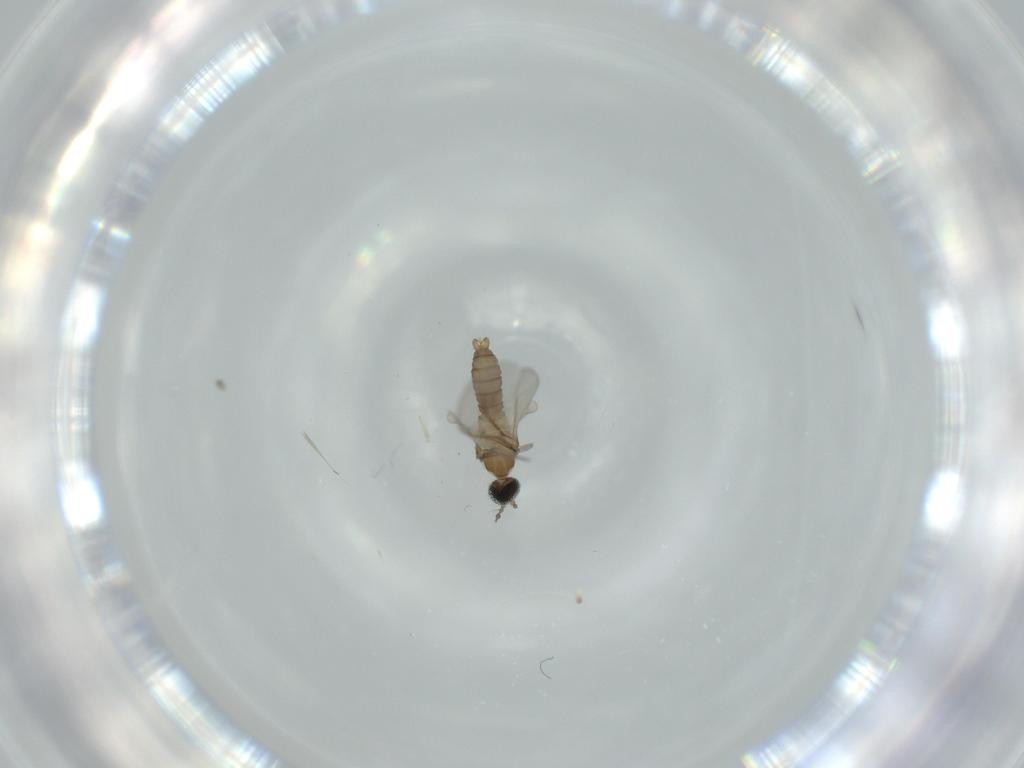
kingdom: Animalia
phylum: Arthropoda
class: Insecta
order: Diptera
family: Cecidomyiidae
